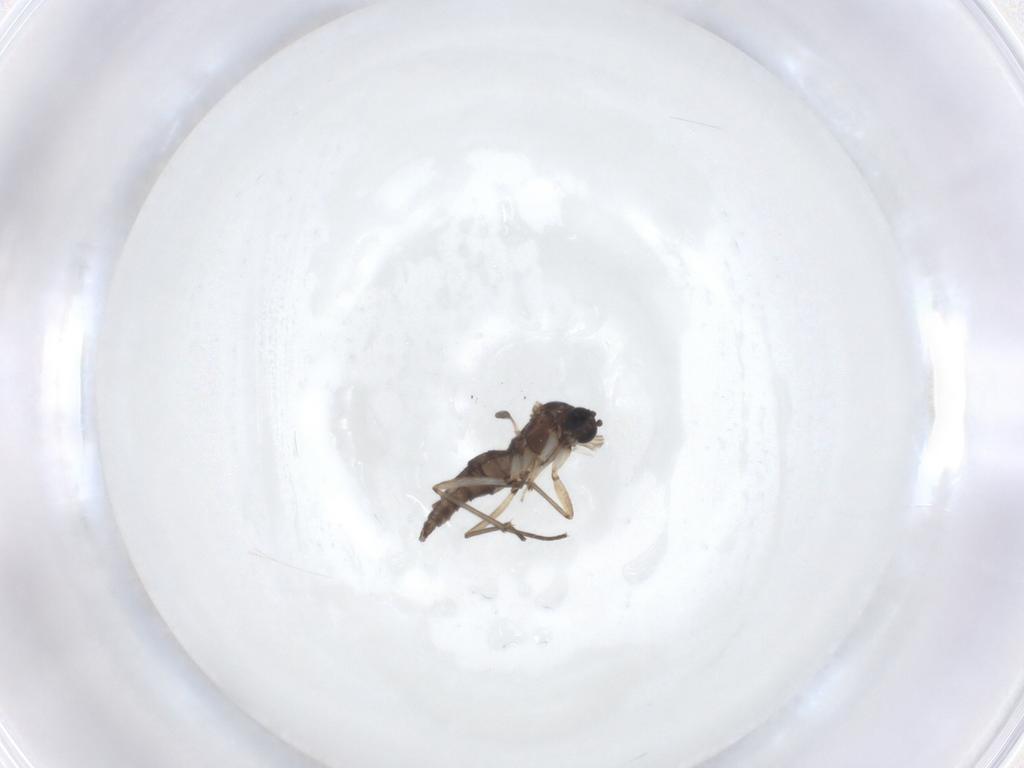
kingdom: Animalia
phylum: Arthropoda
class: Insecta
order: Diptera
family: Sciaridae
